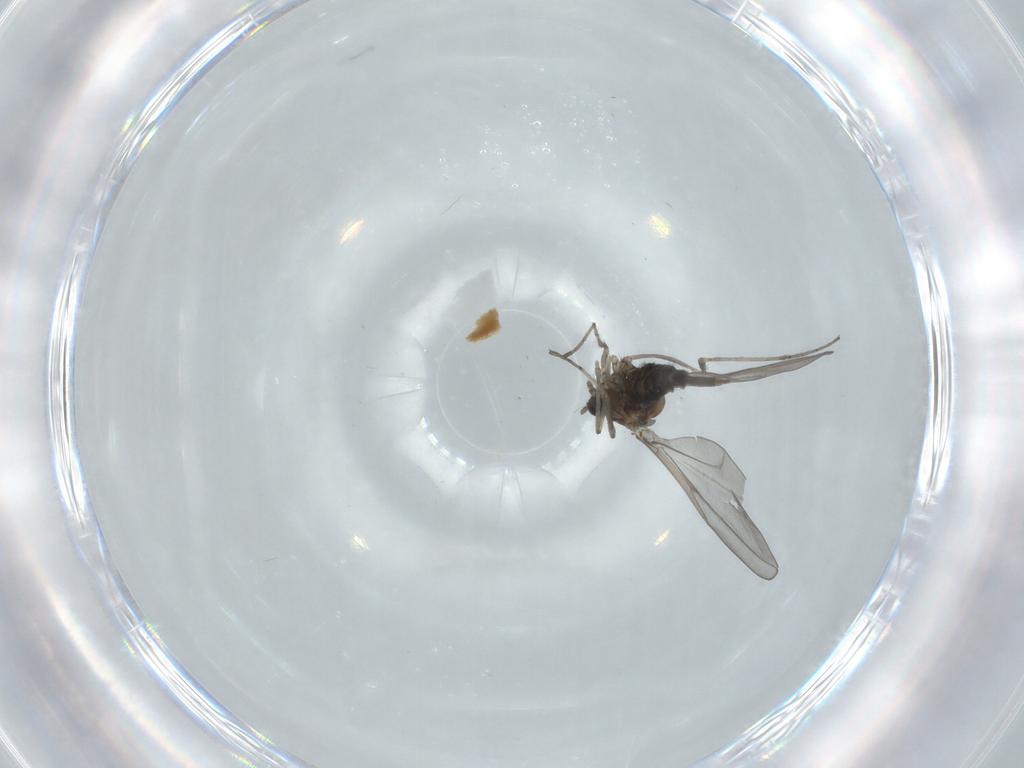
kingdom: Animalia
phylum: Arthropoda
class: Insecta
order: Diptera
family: Cecidomyiidae
